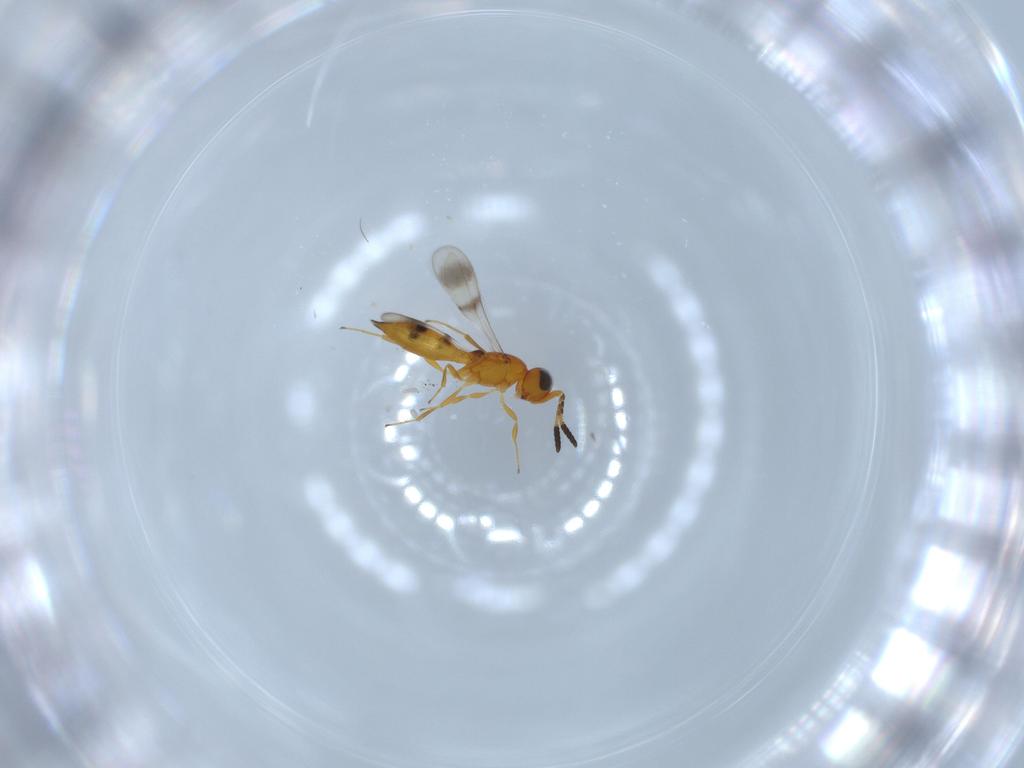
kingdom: Animalia
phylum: Arthropoda
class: Insecta
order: Hymenoptera
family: Scelionidae
